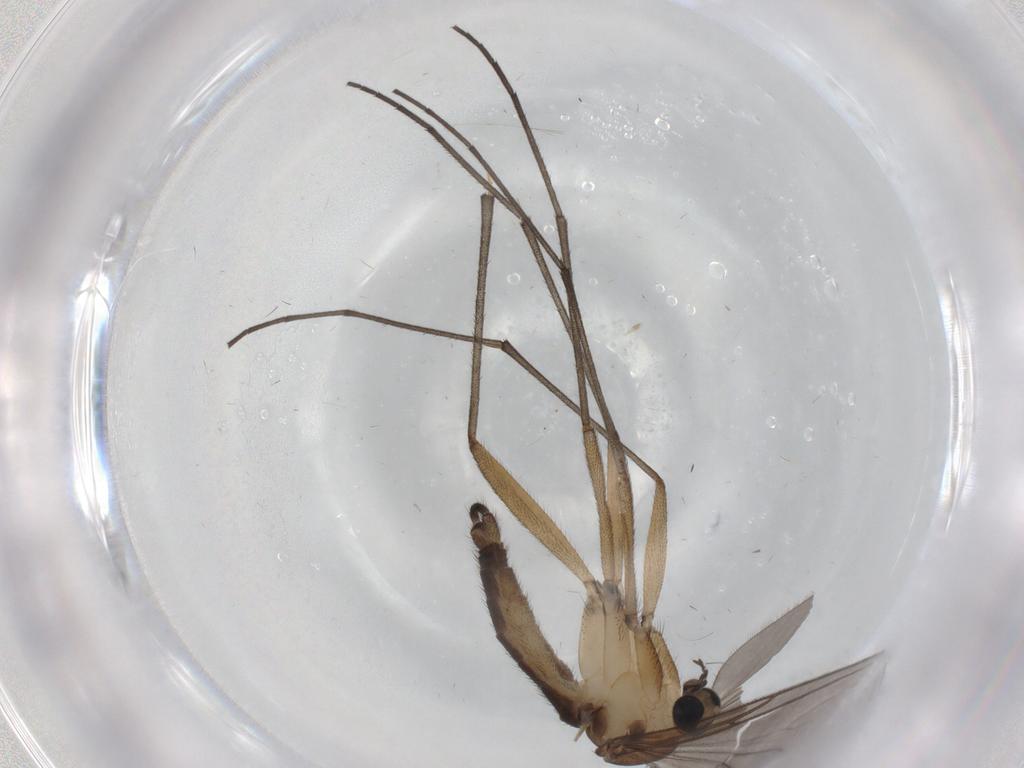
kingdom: Animalia
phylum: Arthropoda
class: Insecta
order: Diptera
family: Sciaridae
